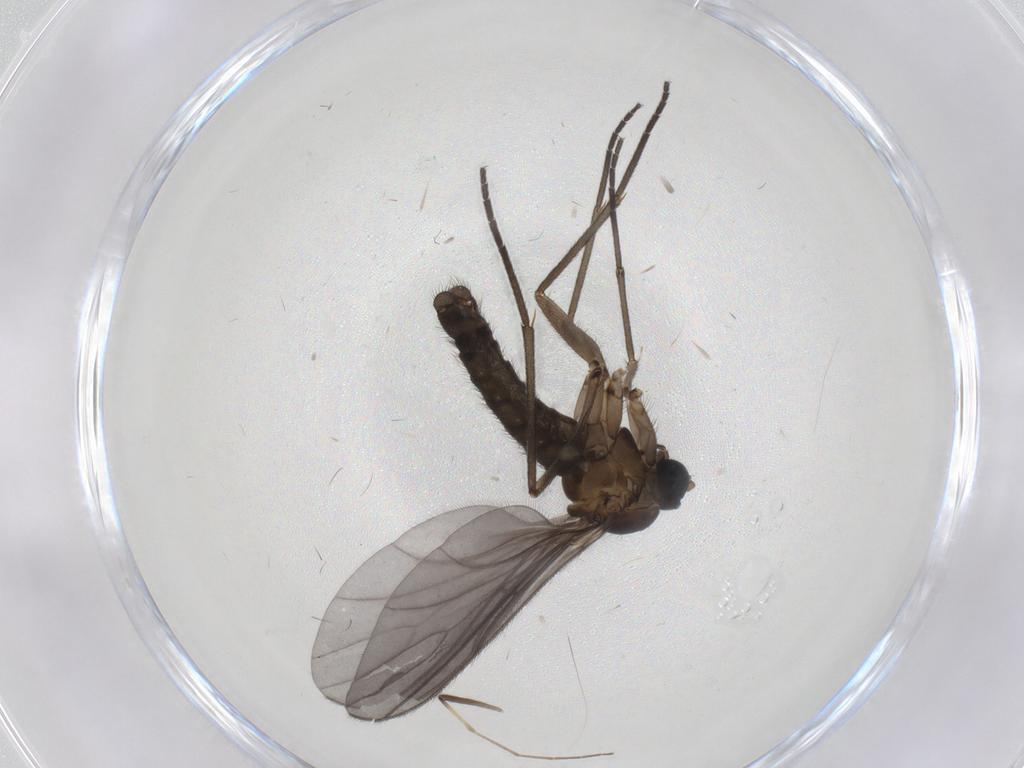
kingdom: Animalia
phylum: Arthropoda
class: Insecta
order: Diptera
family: Sciaridae
